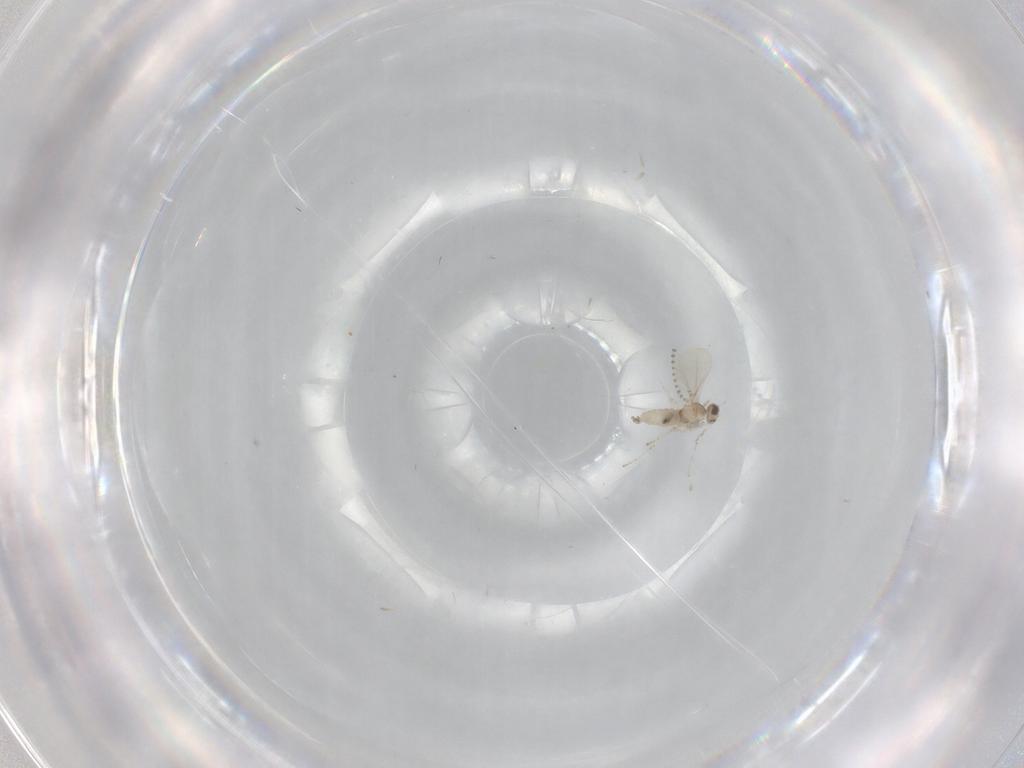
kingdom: Animalia
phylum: Arthropoda
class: Insecta
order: Diptera
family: Cecidomyiidae
